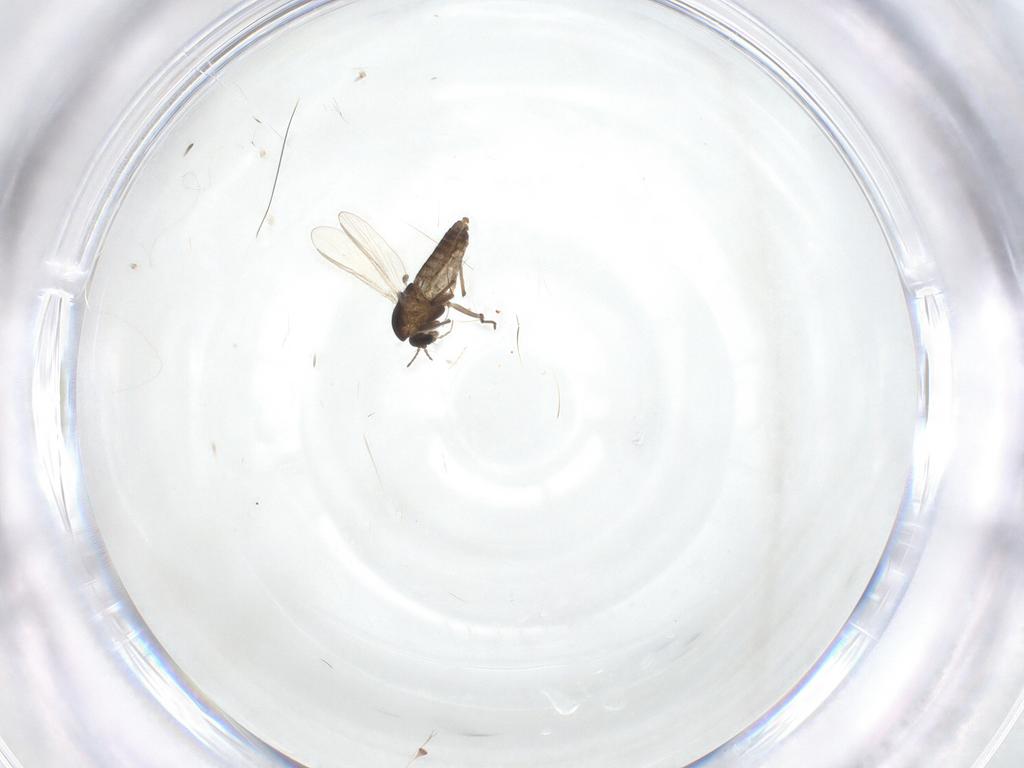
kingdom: Animalia
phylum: Arthropoda
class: Insecta
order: Diptera
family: Chironomidae
